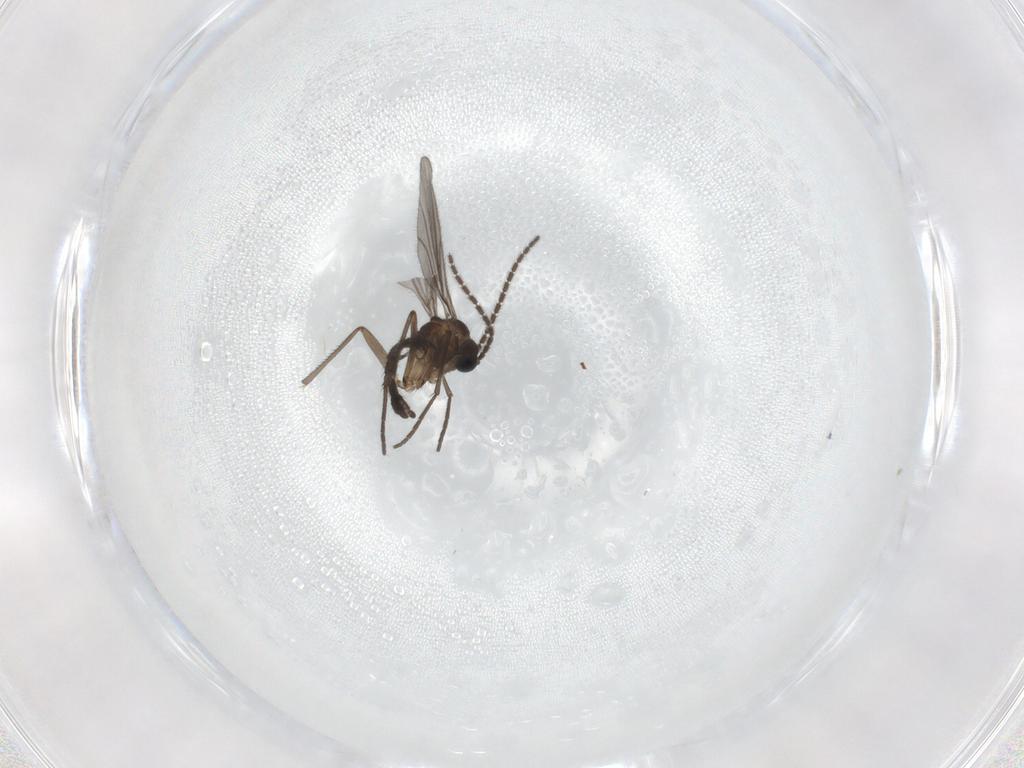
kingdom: Animalia
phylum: Arthropoda
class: Insecta
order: Diptera
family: Sciaridae
